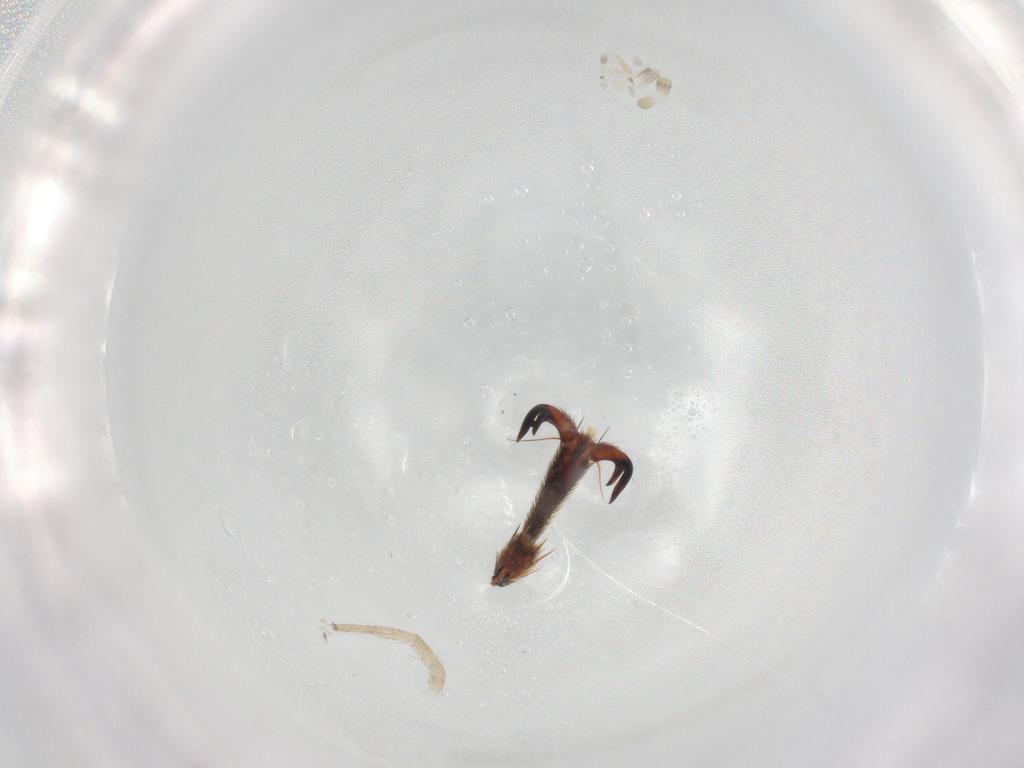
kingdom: Animalia
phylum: Arthropoda
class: Arachnida
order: Araneae
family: Oxyopidae
